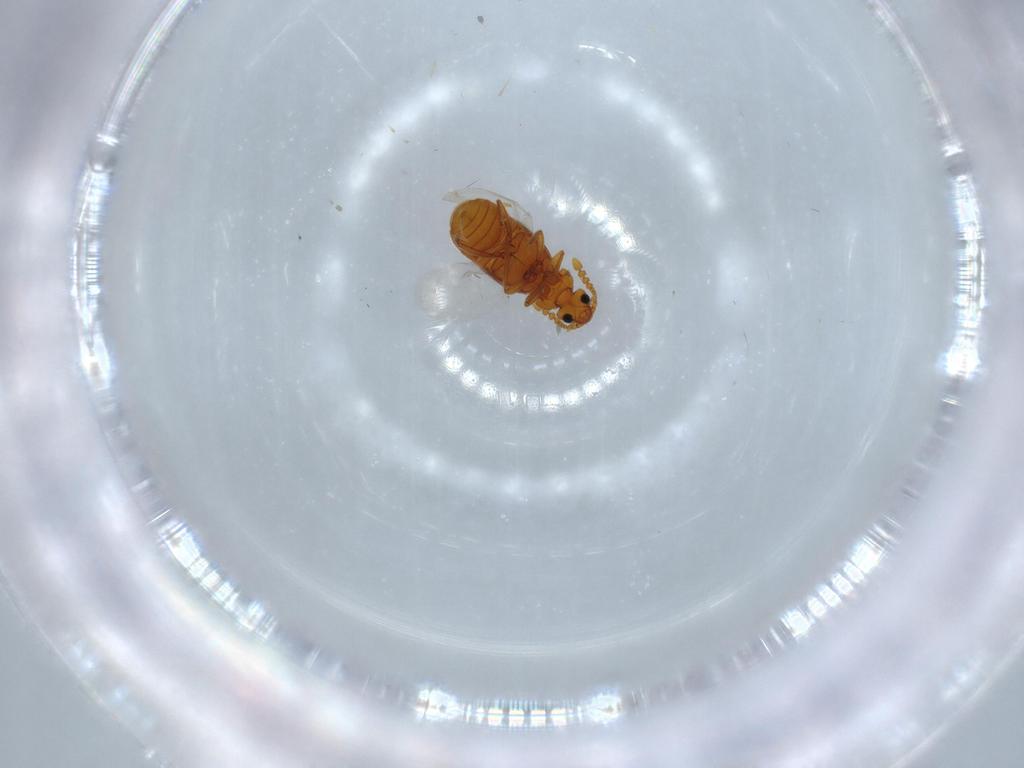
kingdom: Animalia
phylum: Arthropoda
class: Insecta
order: Coleoptera
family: Staphylinidae
